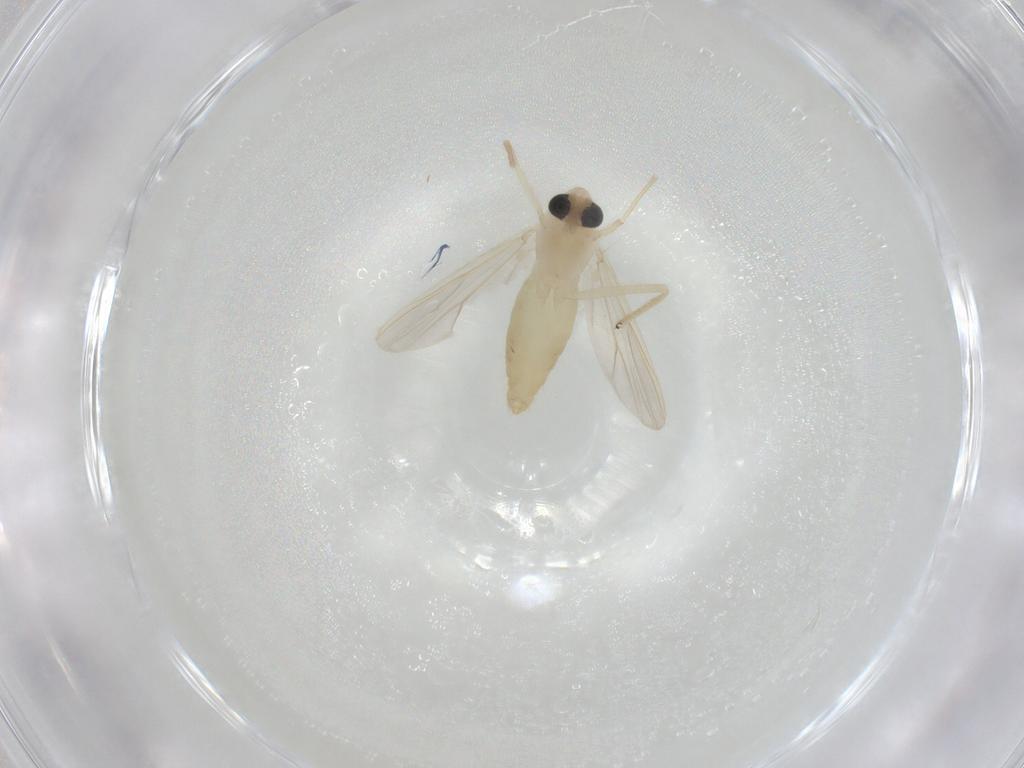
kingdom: Animalia
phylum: Arthropoda
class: Insecta
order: Diptera
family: Chironomidae
